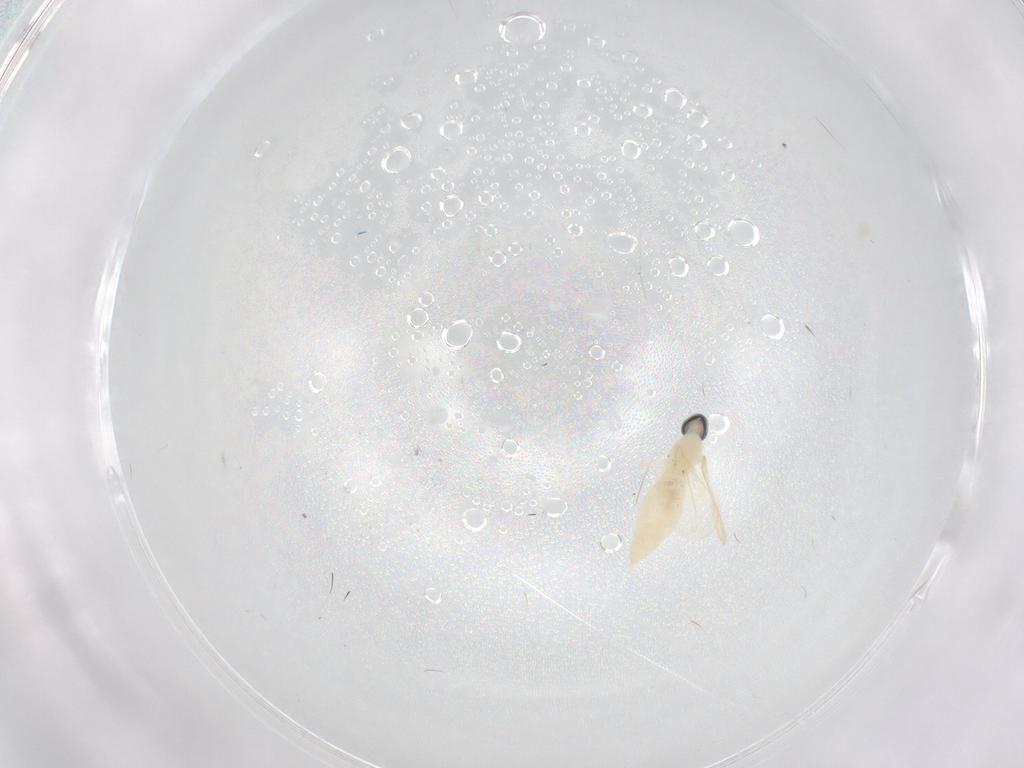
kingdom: Animalia
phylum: Arthropoda
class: Insecta
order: Diptera
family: Cecidomyiidae
